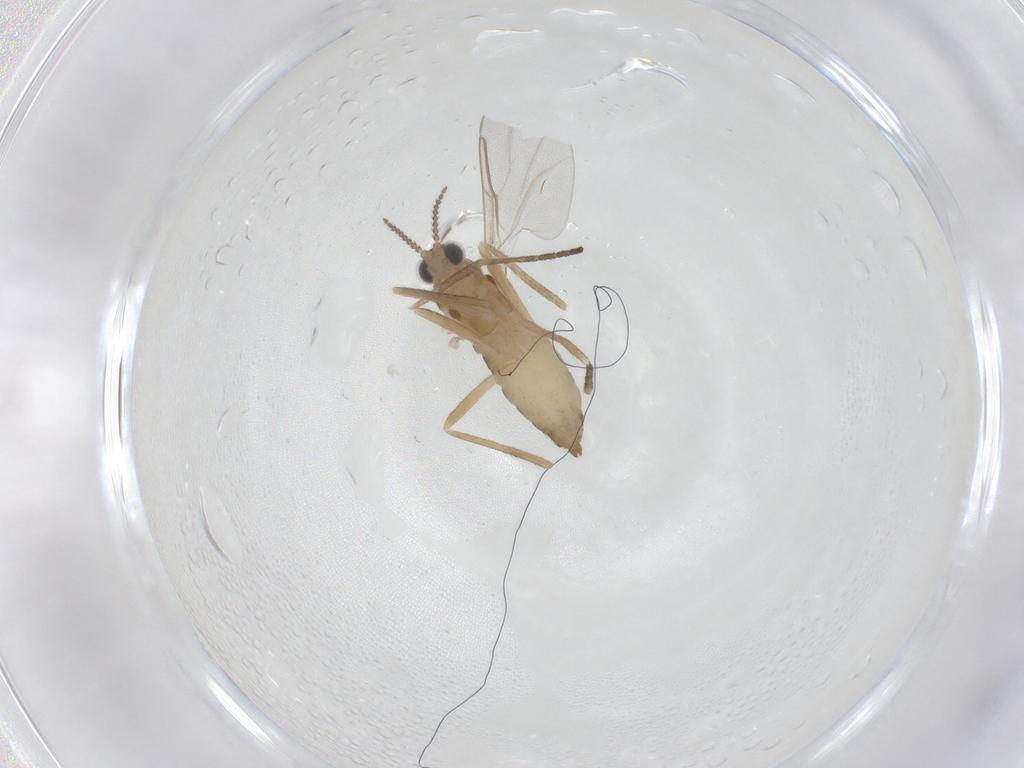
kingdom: Animalia
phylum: Arthropoda
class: Insecta
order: Diptera
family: Cecidomyiidae
